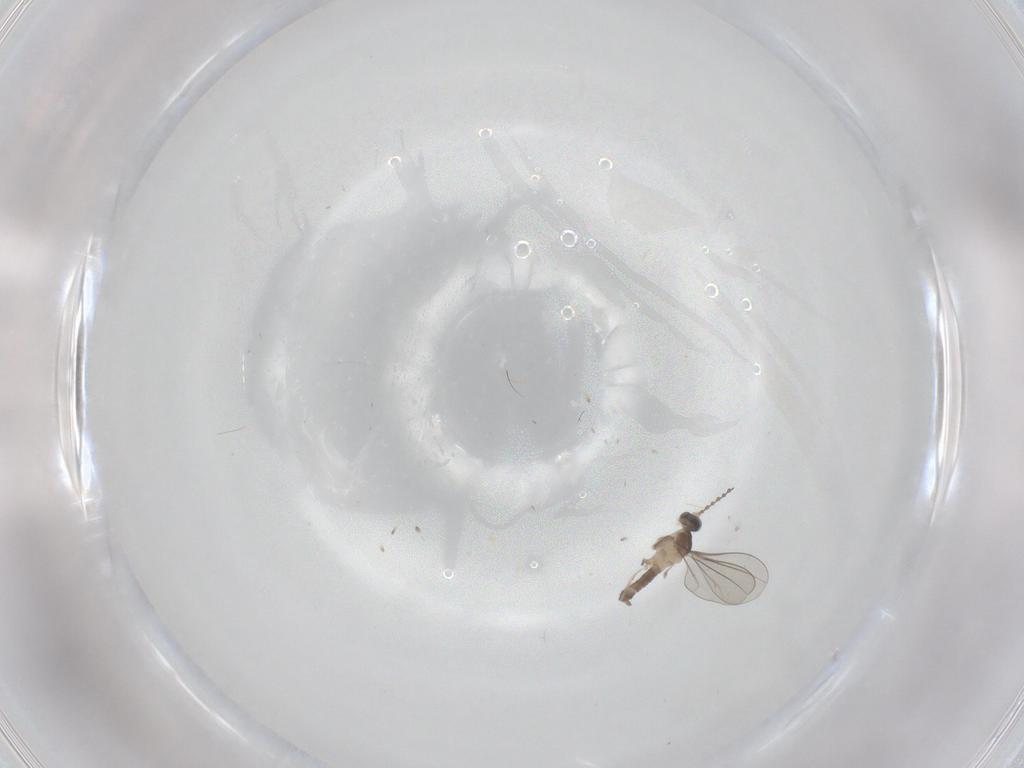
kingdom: Animalia
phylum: Arthropoda
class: Insecta
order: Diptera
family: Cecidomyiidae
